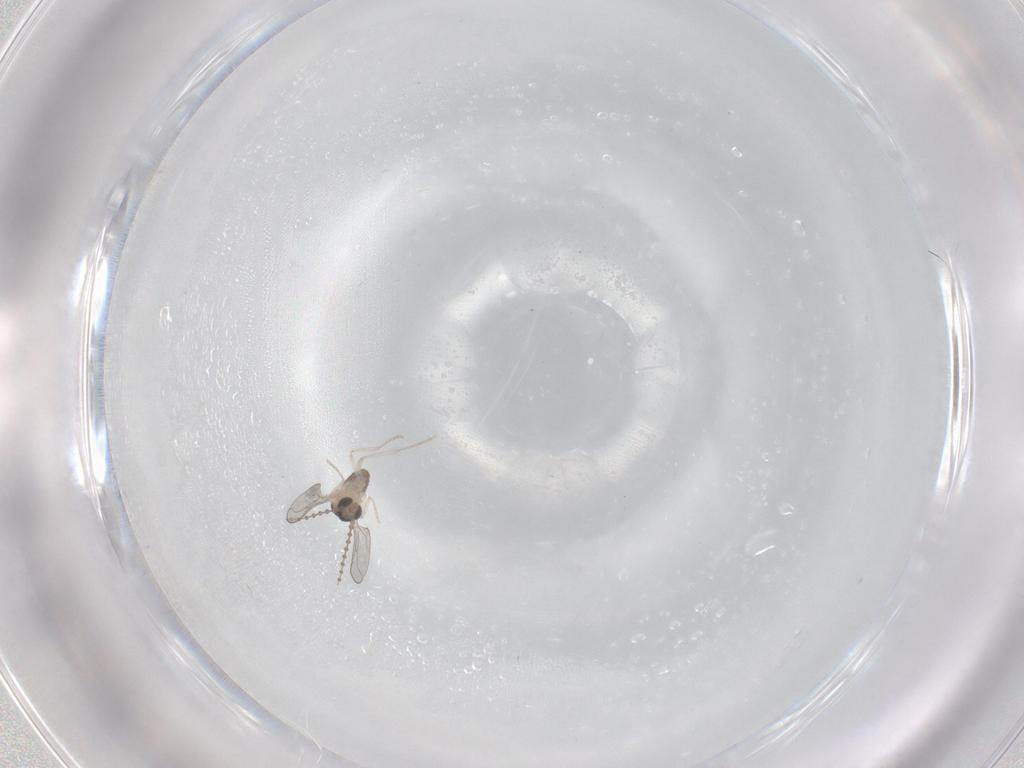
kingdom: Animalia
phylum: Arthropoda
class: Insecta
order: Diptera
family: Cecidomyiidae
